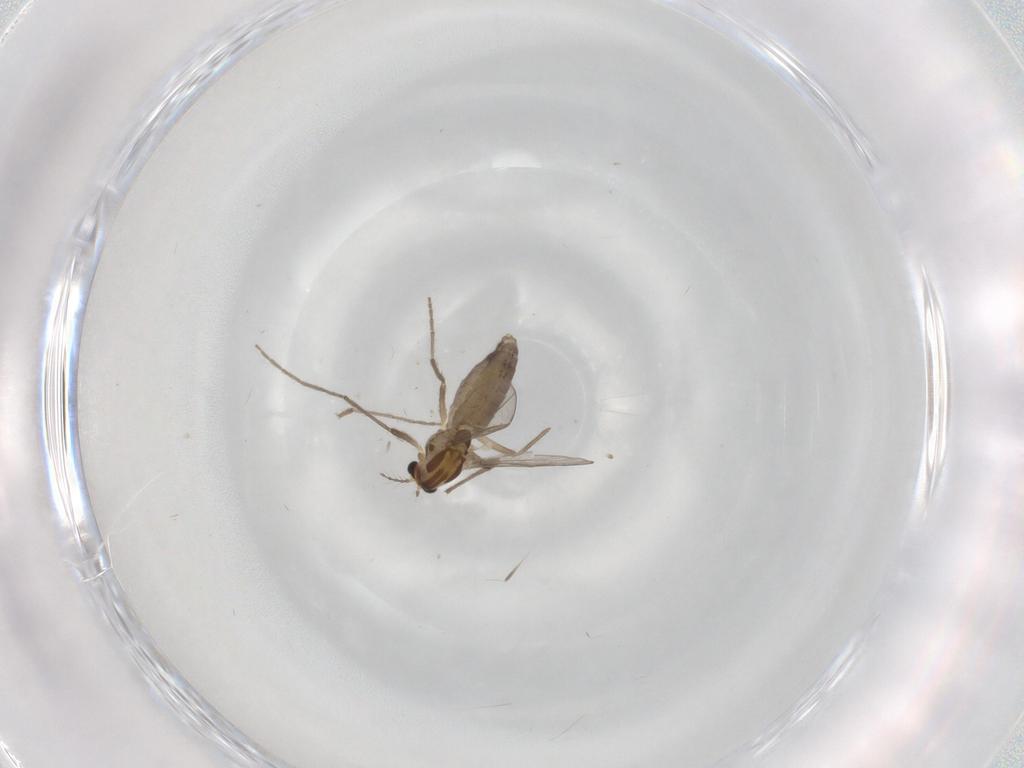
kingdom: Animalia
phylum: Arthropoda
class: Insecta
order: Diptera
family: Chironomidae
